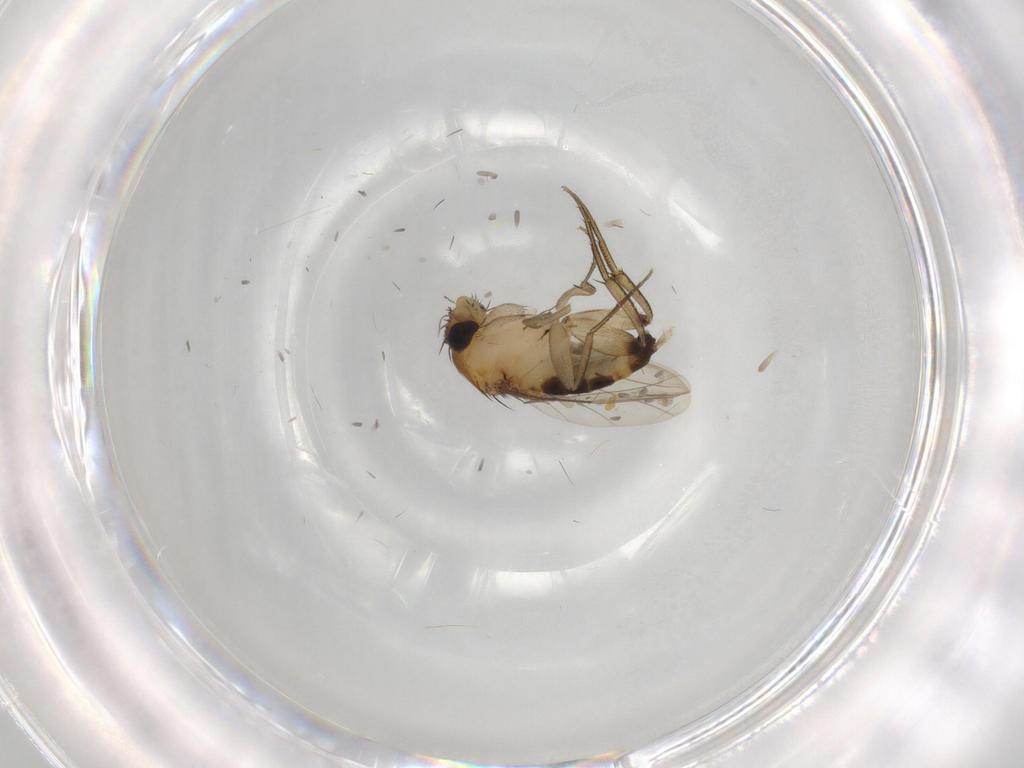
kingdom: Animalia
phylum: Arthropoda
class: Insecta
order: Diptera
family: Phoridae
